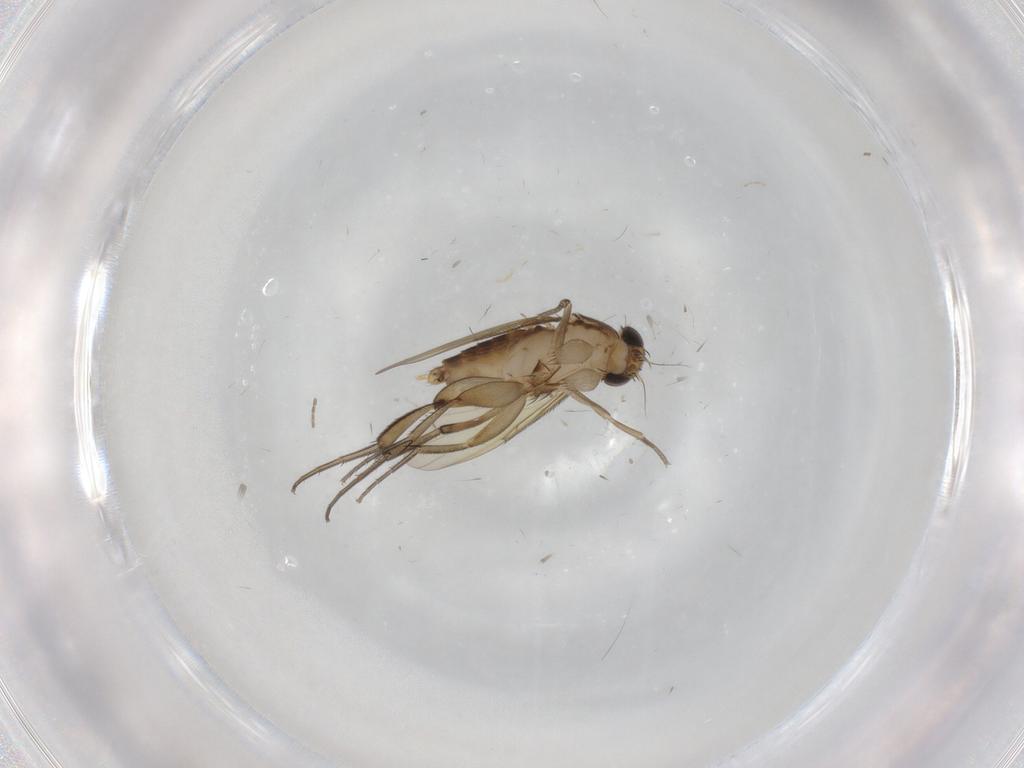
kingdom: Animalia
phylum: Arthropoda
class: Insecta
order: Diptera
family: Phoridae
